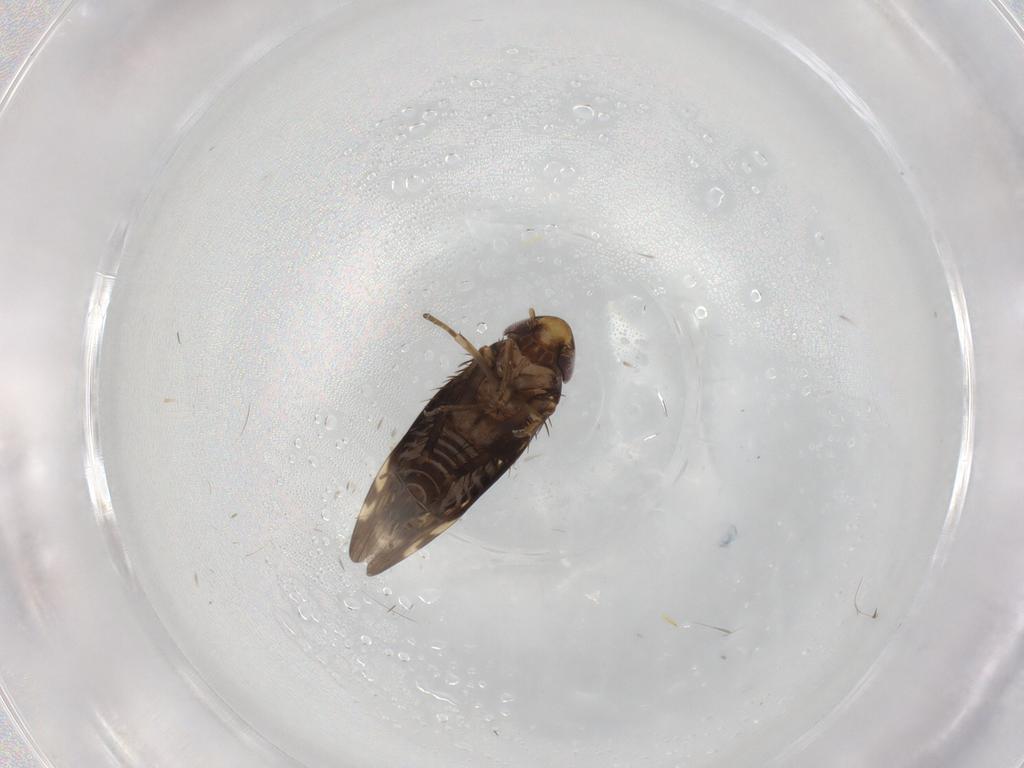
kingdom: Animalia
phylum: Arthropoda
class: Insecta
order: Hemiptera
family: Cicadellidae
